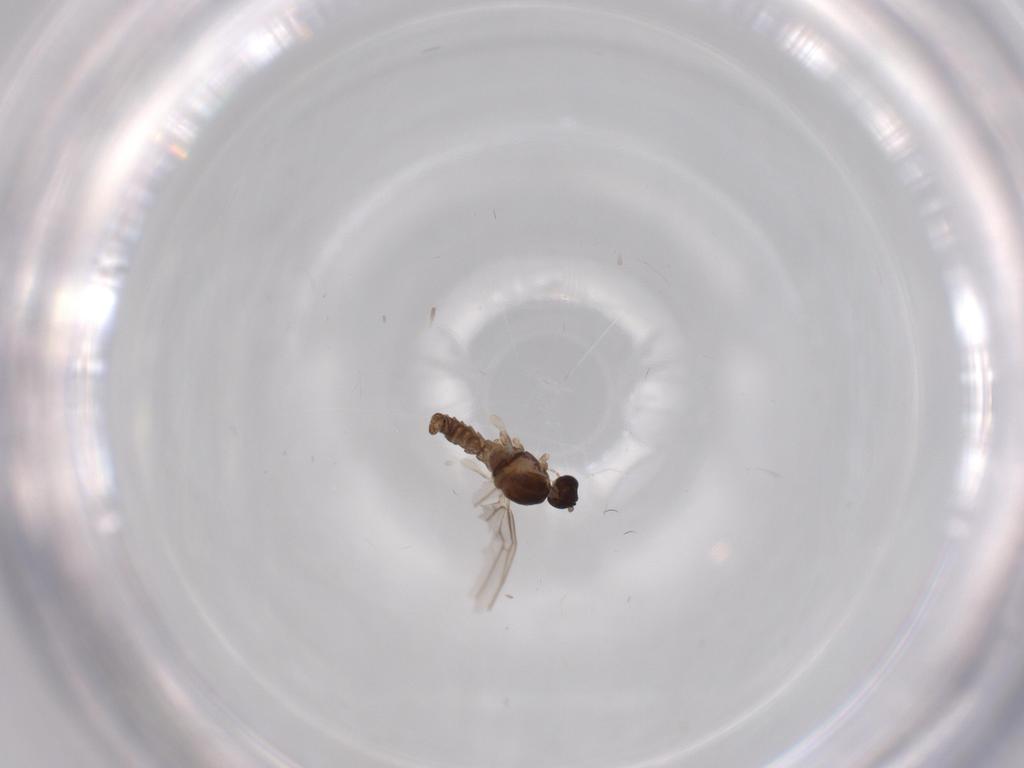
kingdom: Animalia
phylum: Arthropoda
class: Insecta
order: Diptera
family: Cecidomyiidae
